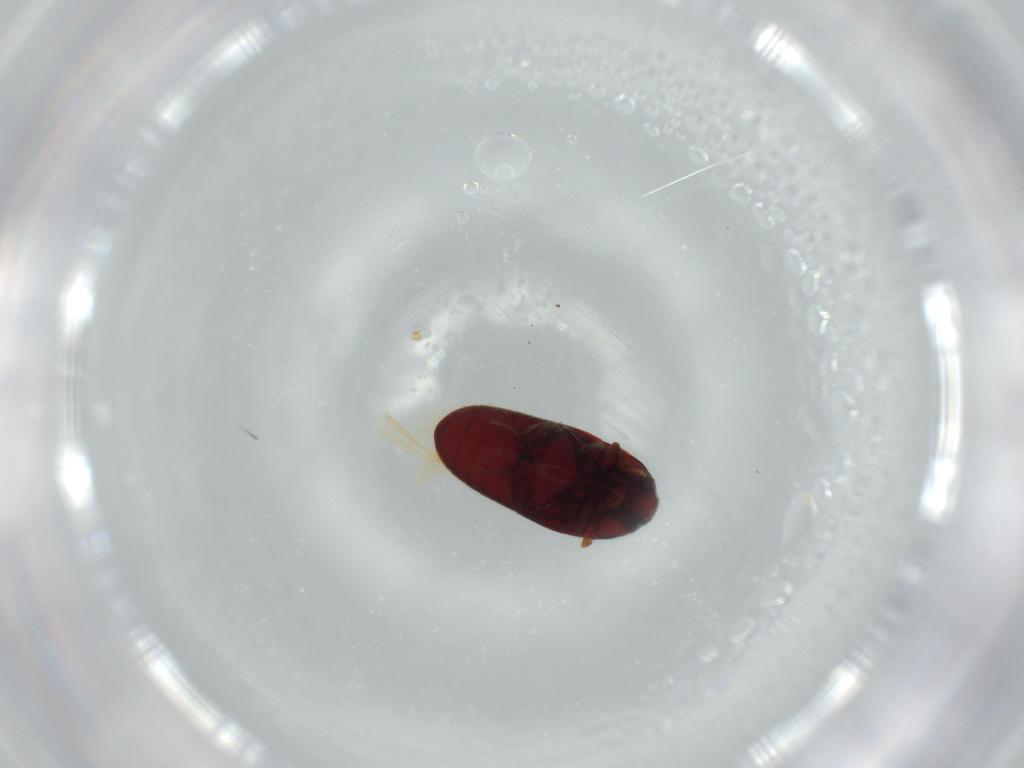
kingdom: Animalia
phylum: Arthropoda
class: Insecta
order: Coleoptera
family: Throscidae
